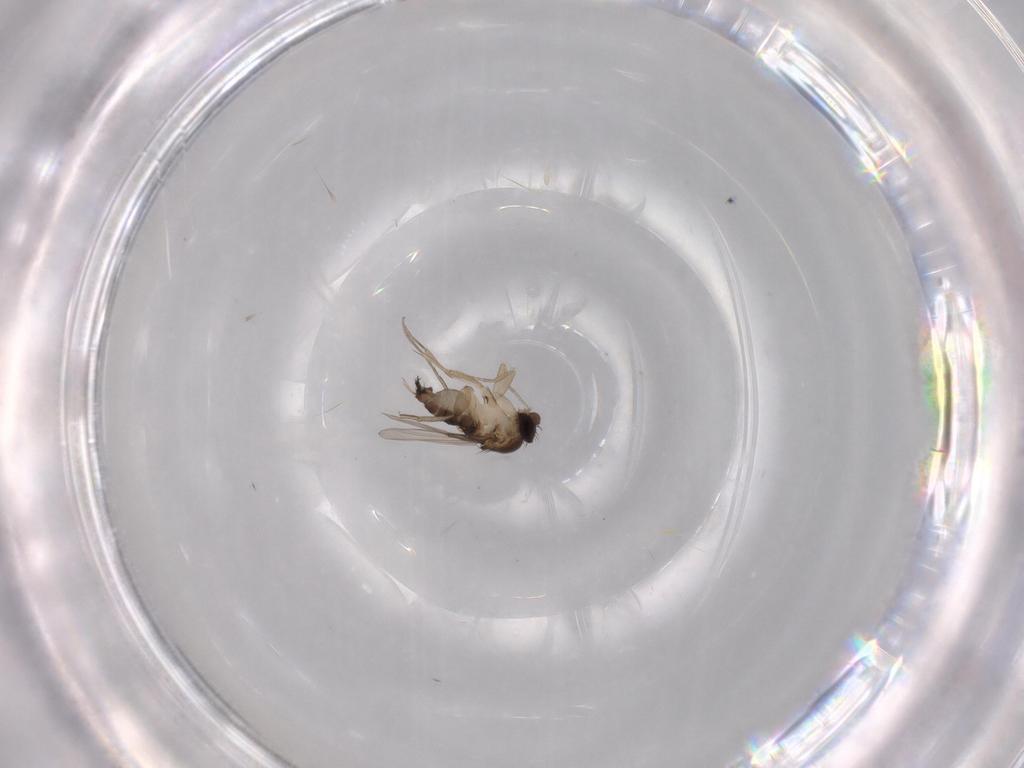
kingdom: Animalia
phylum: Arthropoda
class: Insecta
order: Diptera
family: Phoridae
